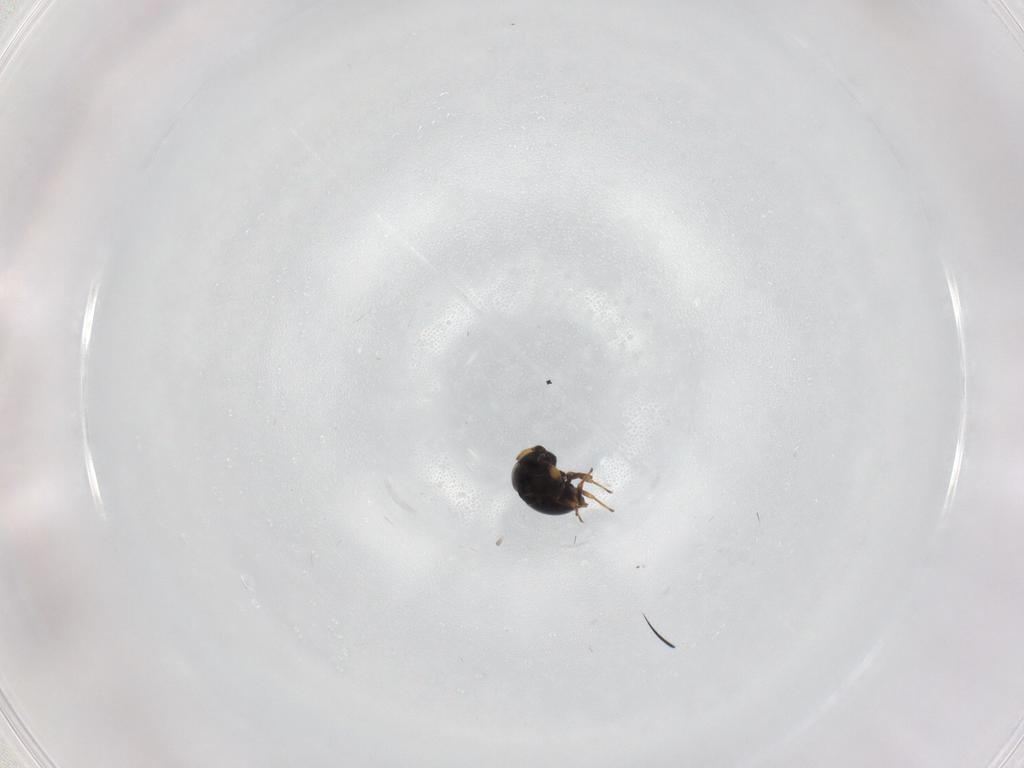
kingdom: Animalia
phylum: Arthropoda
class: Insecta
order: Hymenoptera
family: Scelionidae
